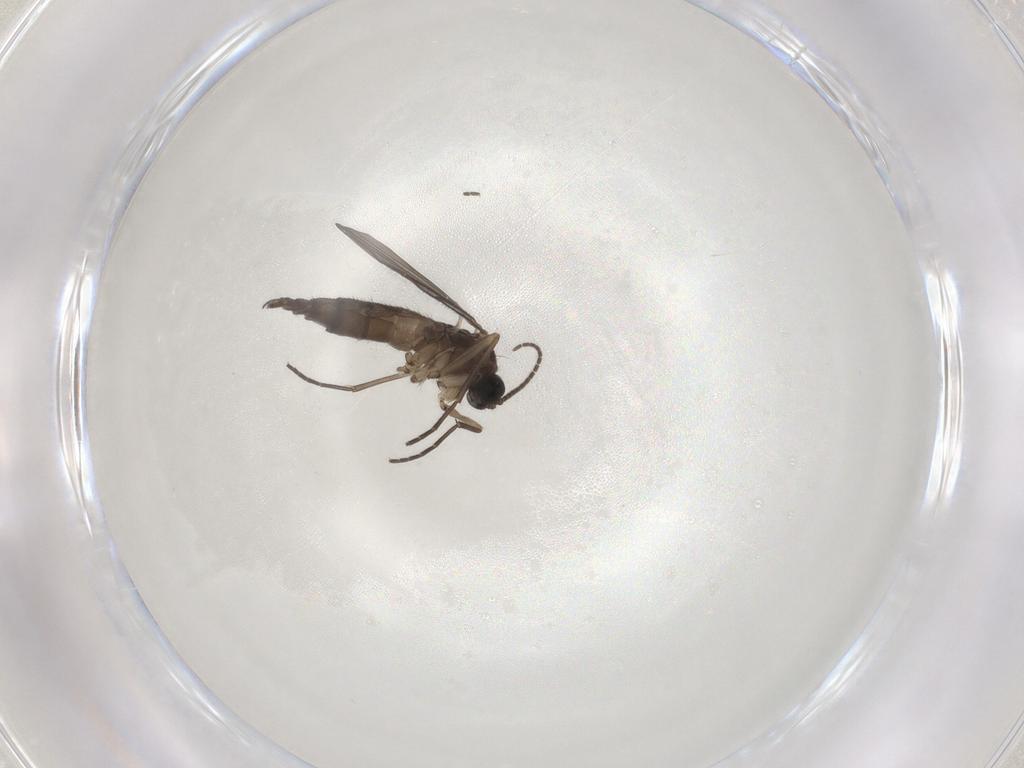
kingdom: Animalia
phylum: Arthropoda
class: Insecta
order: Diptera
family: Sciaridae
